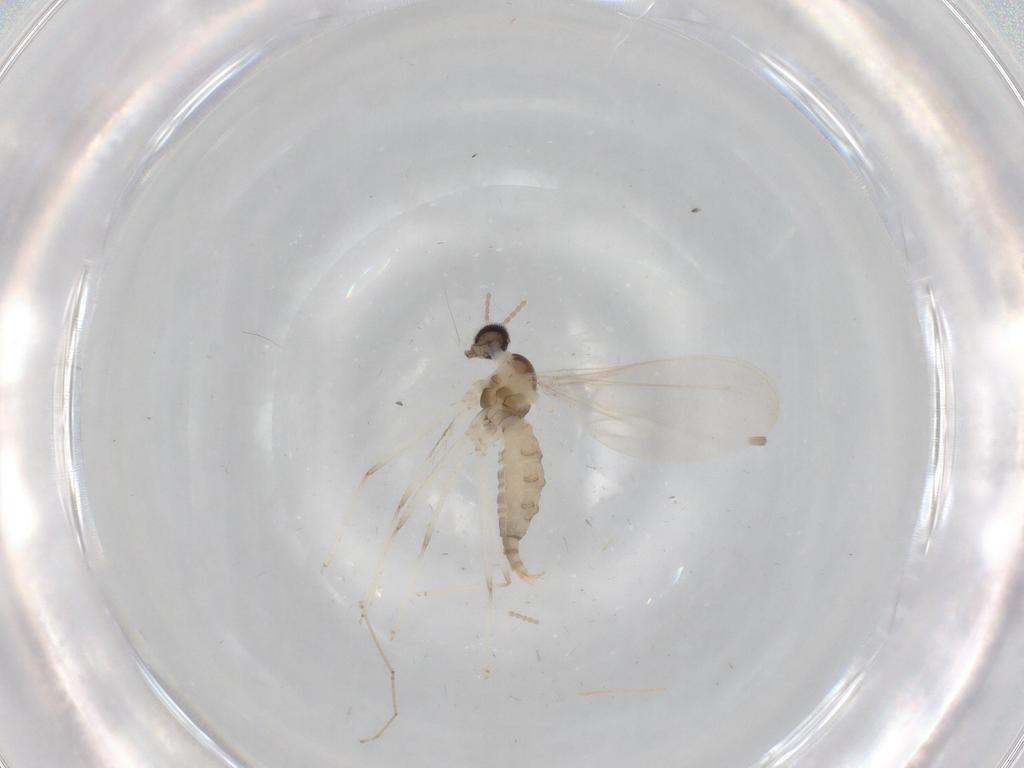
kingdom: Animalia
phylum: Arthropoda
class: Insecta
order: Diptera
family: Cecidomyiidae
